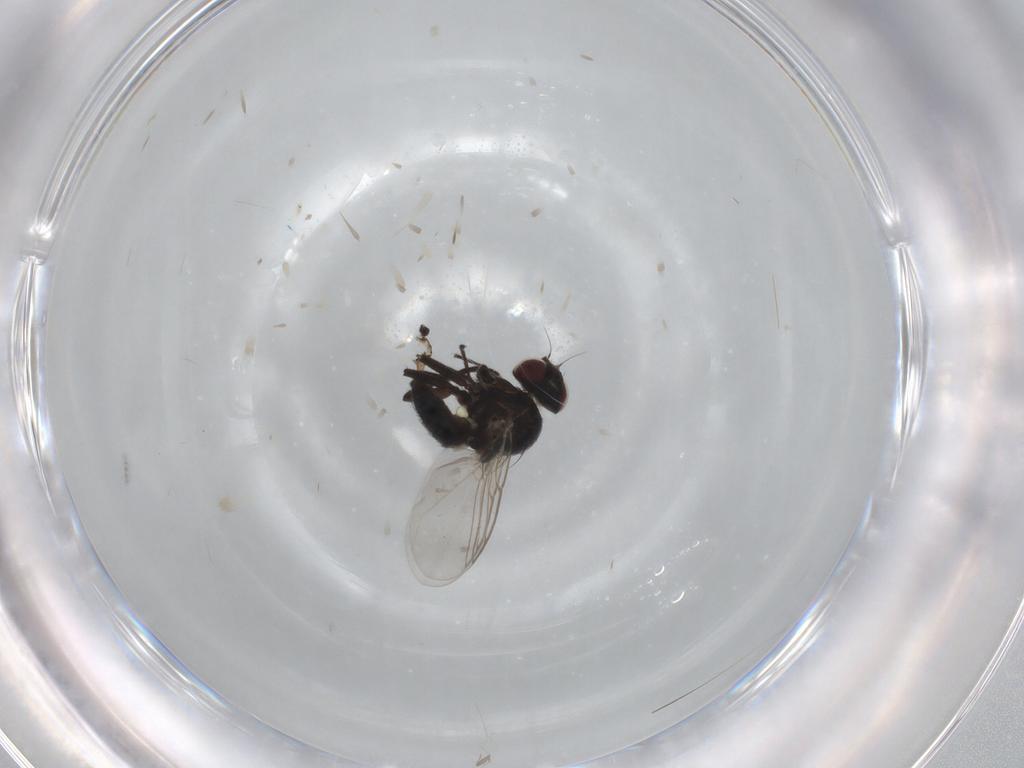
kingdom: Animalia
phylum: Arthropoda
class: Insecta
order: Diptera
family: Agromyzidae
